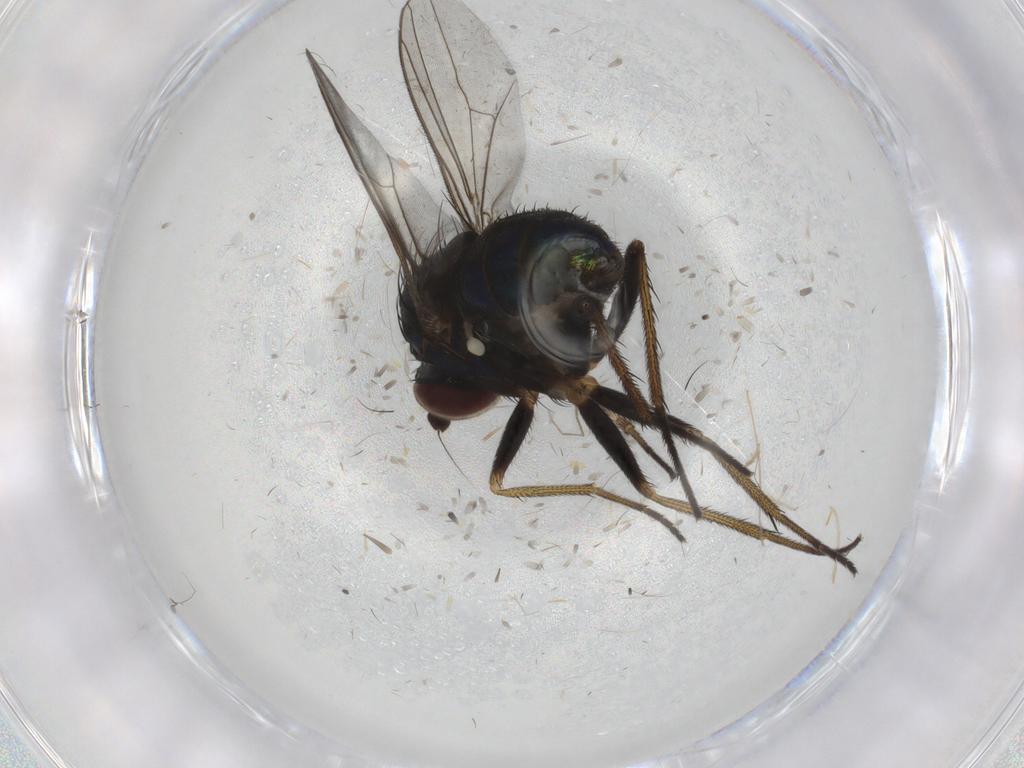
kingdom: Animalia
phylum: Arthropoda
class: Insecta
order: Diptera
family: Dolichopodidae
